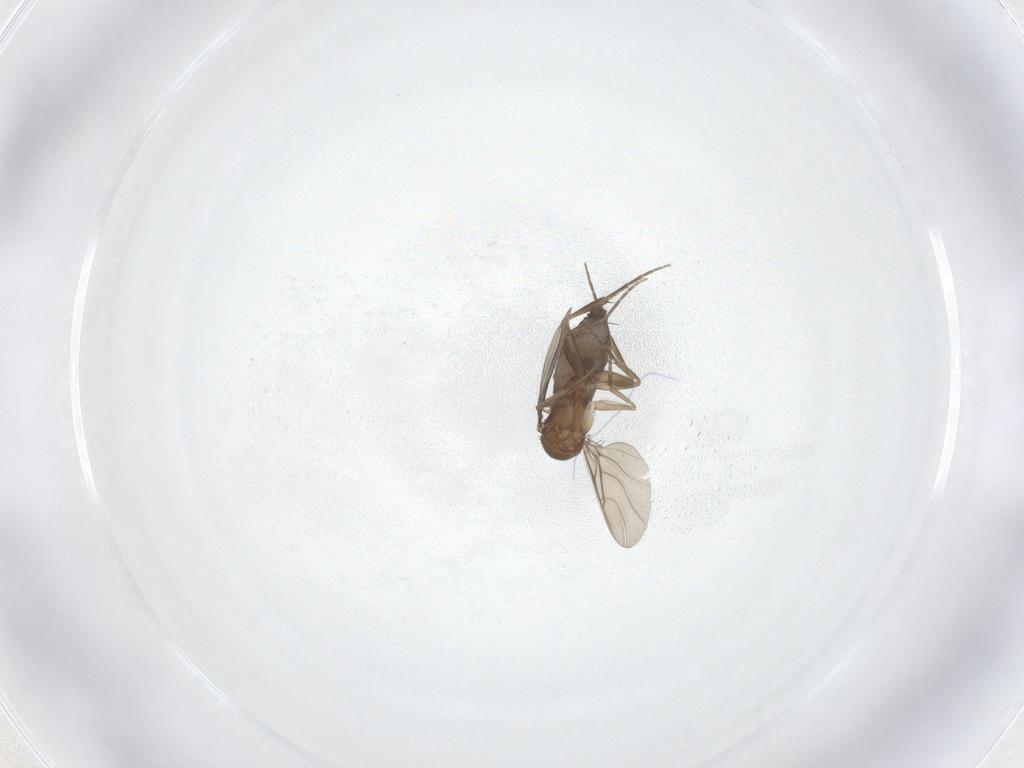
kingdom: Animalia
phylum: Arthropoda
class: Insecta
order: Diptera
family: Phoridae
